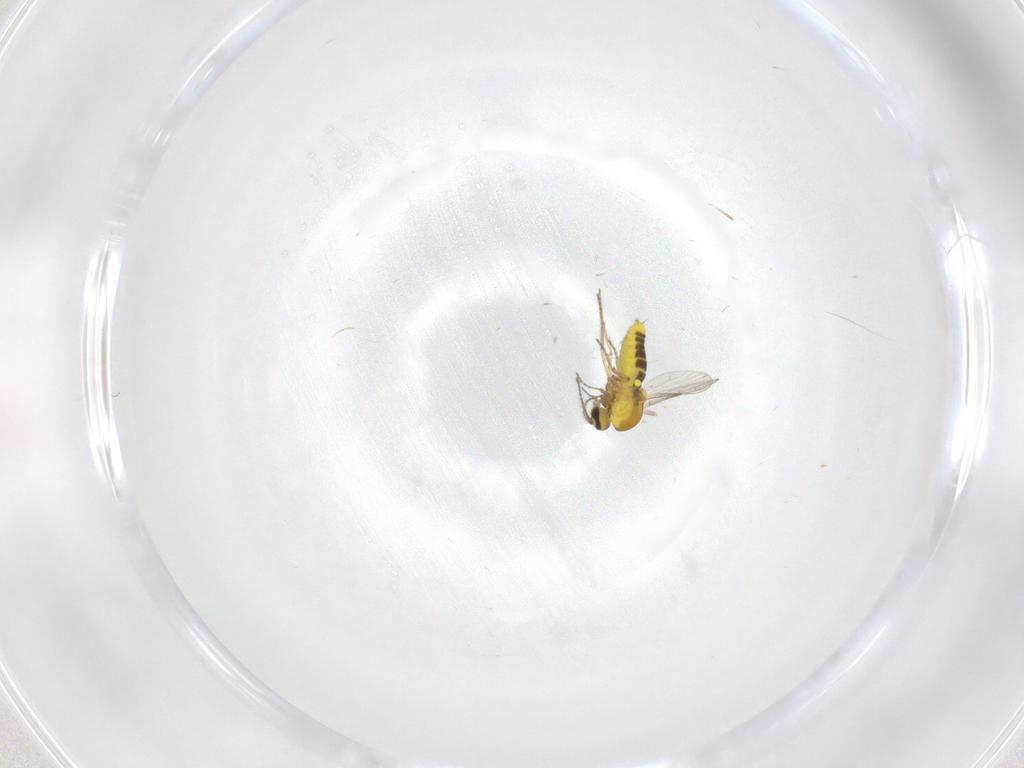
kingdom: Animalia
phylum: Arthropoda
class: Insecta
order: Diptera
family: Ceratopogonidae
